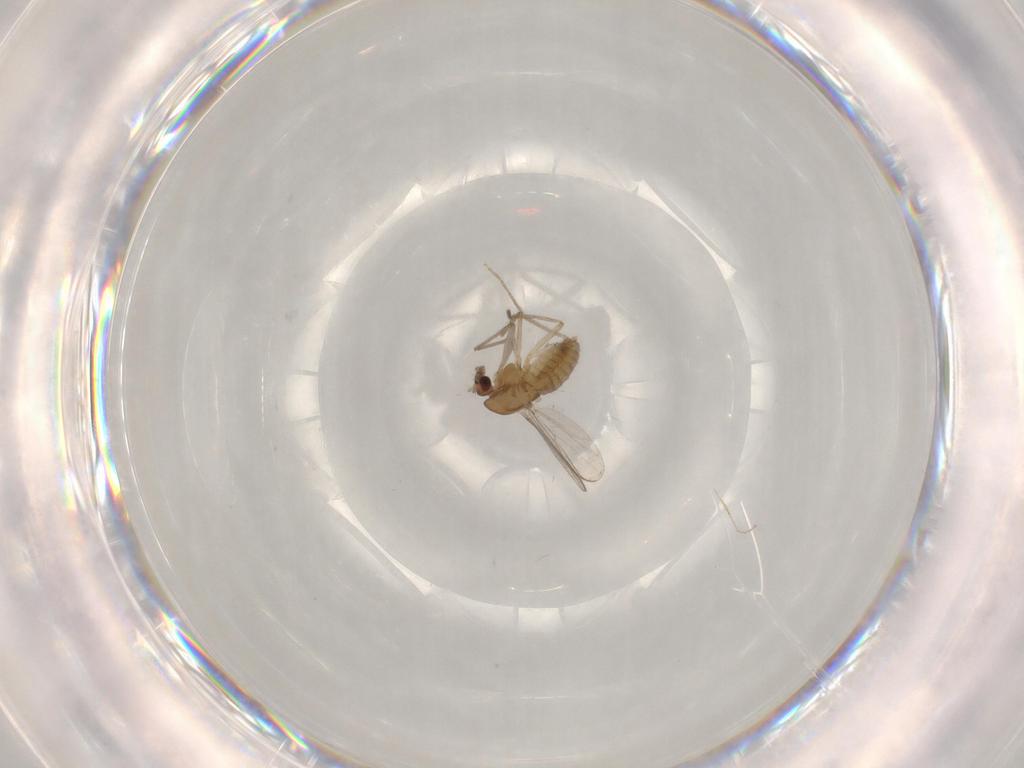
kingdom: Animalia
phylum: Arthropoda
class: Insecta
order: Diptera
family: Chironomidae
